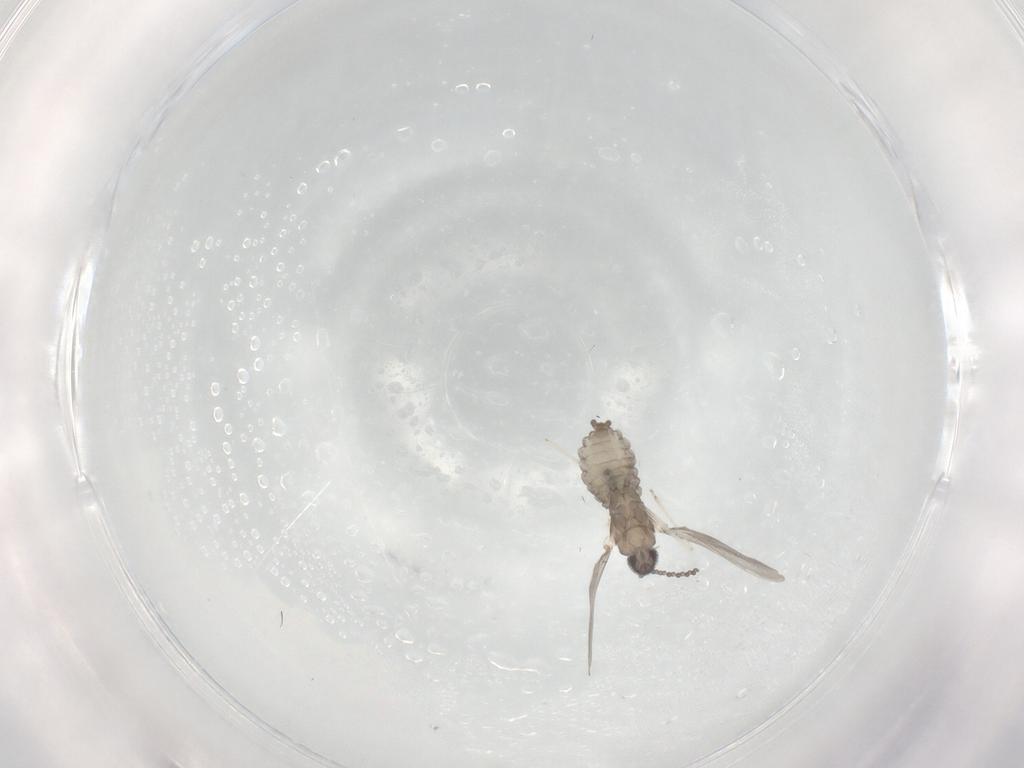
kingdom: Animalia
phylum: Arthropoda
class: Insecta
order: Diptera
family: Cecidomyiidae
